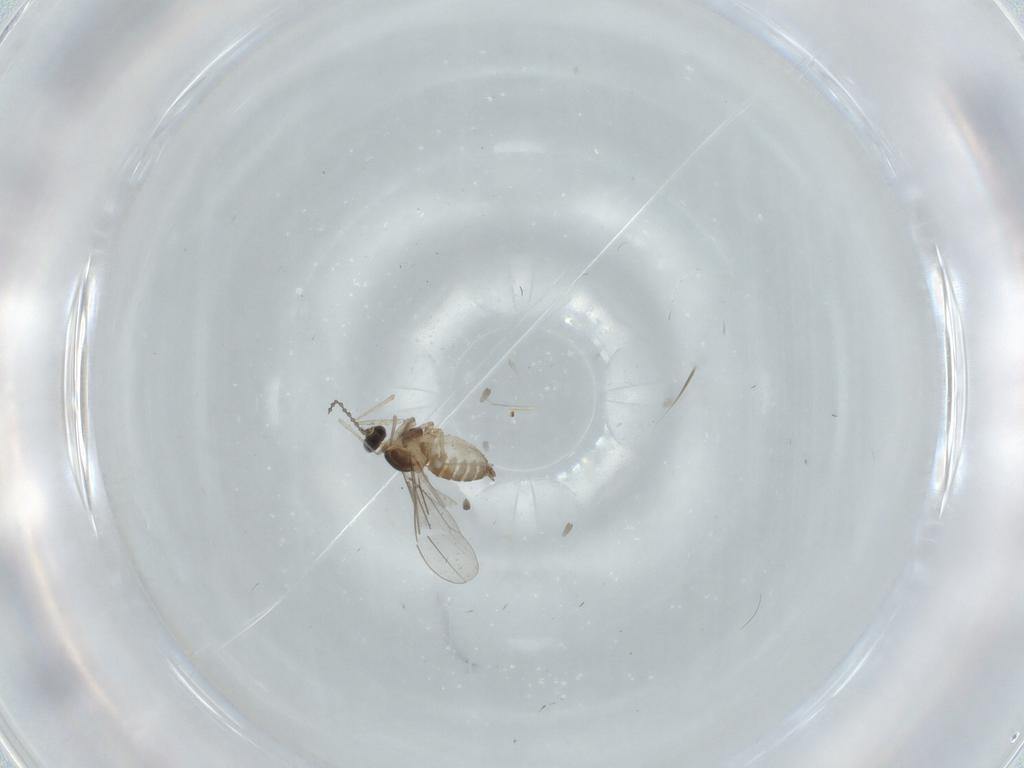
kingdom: Animalia
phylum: Arthropoda
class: Insecta
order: Diptera
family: Cecidomyiidae
